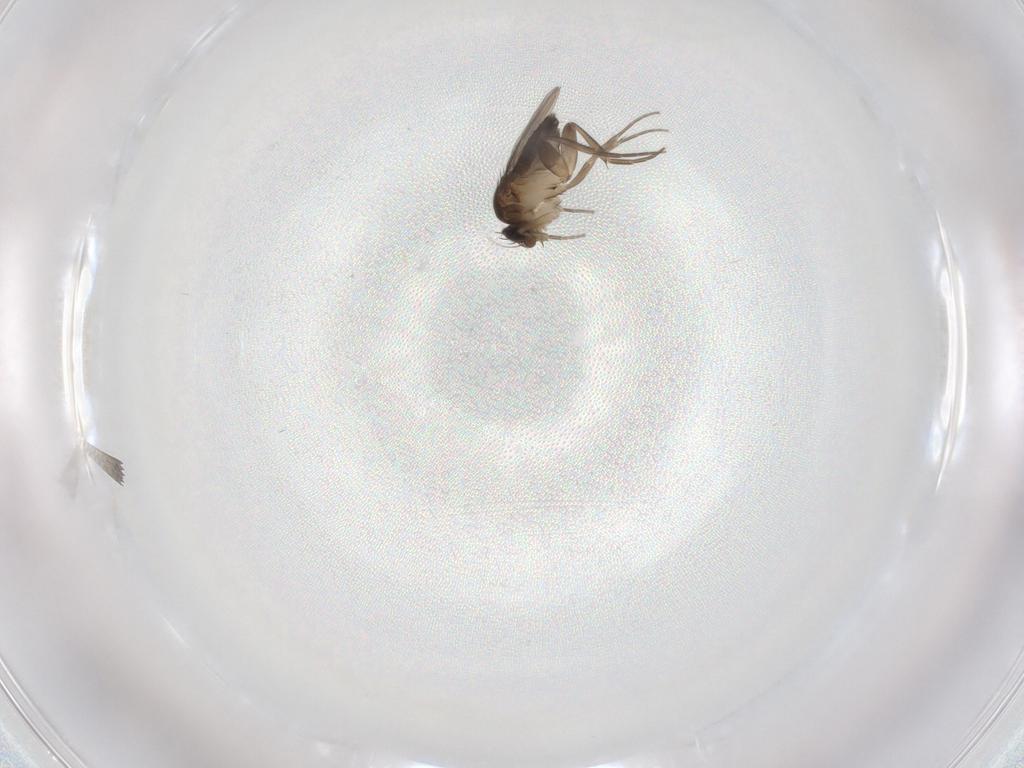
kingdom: Animalia
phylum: Arthropoda
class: Insecta
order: Diptera
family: Phoridae
